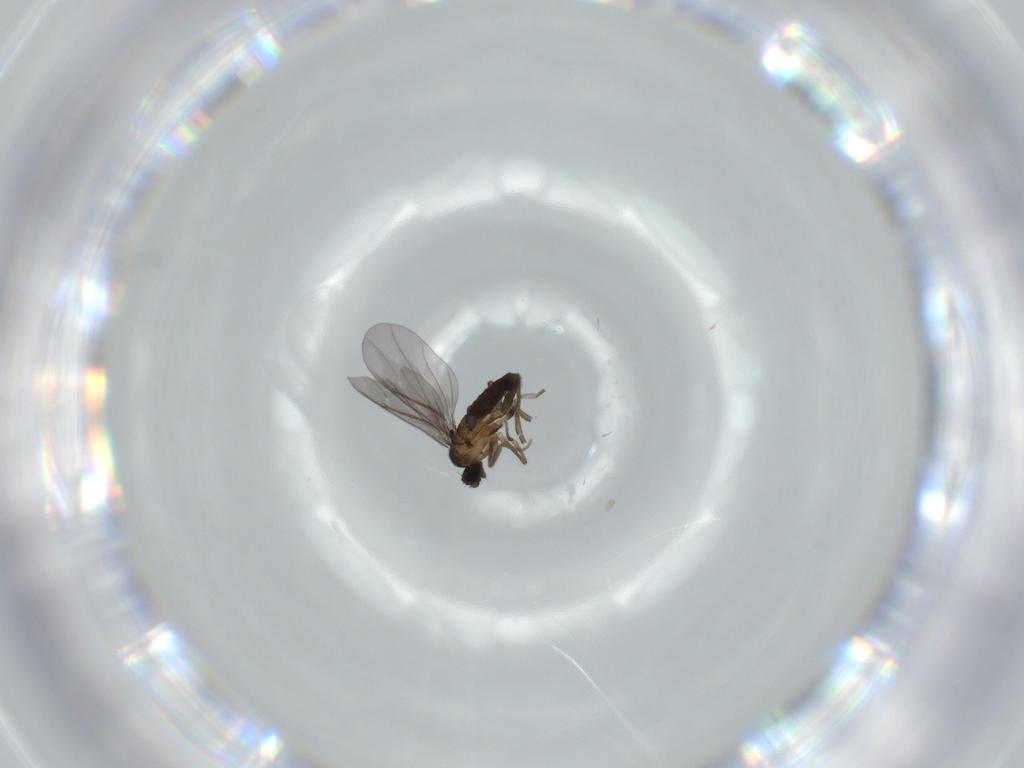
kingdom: Animalia
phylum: Arthropoda
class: Insecta
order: Diptera
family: Phoridae
